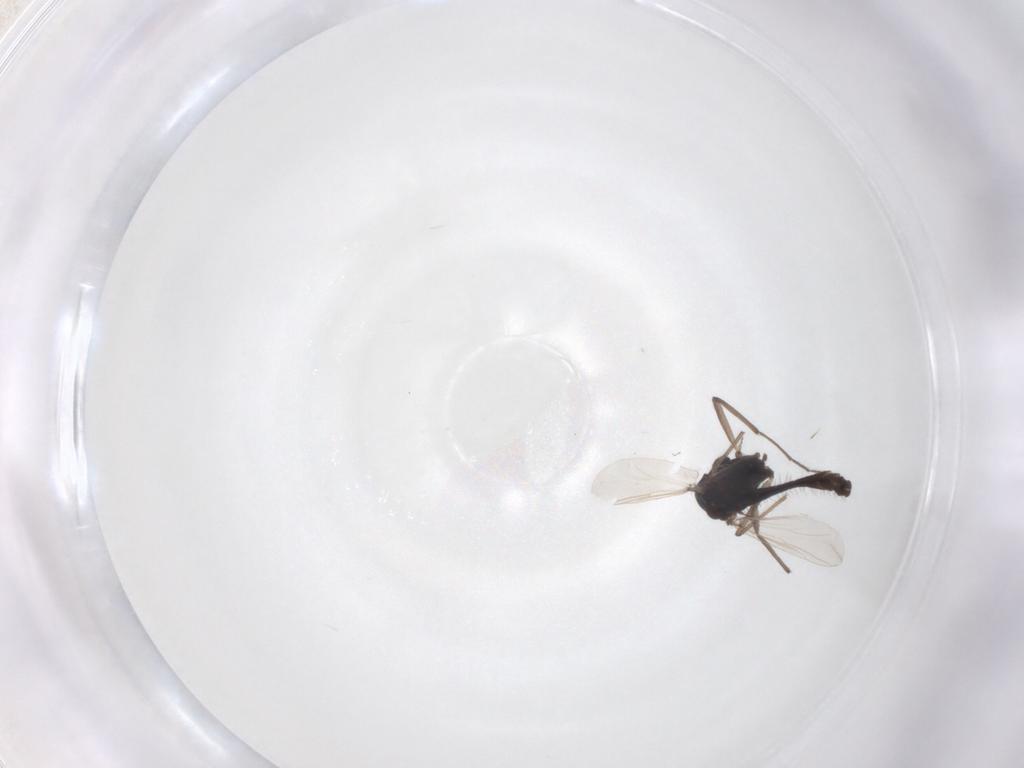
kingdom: Animalia
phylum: Arthropoda
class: Insecta
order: Diptera
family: Chironomidae
